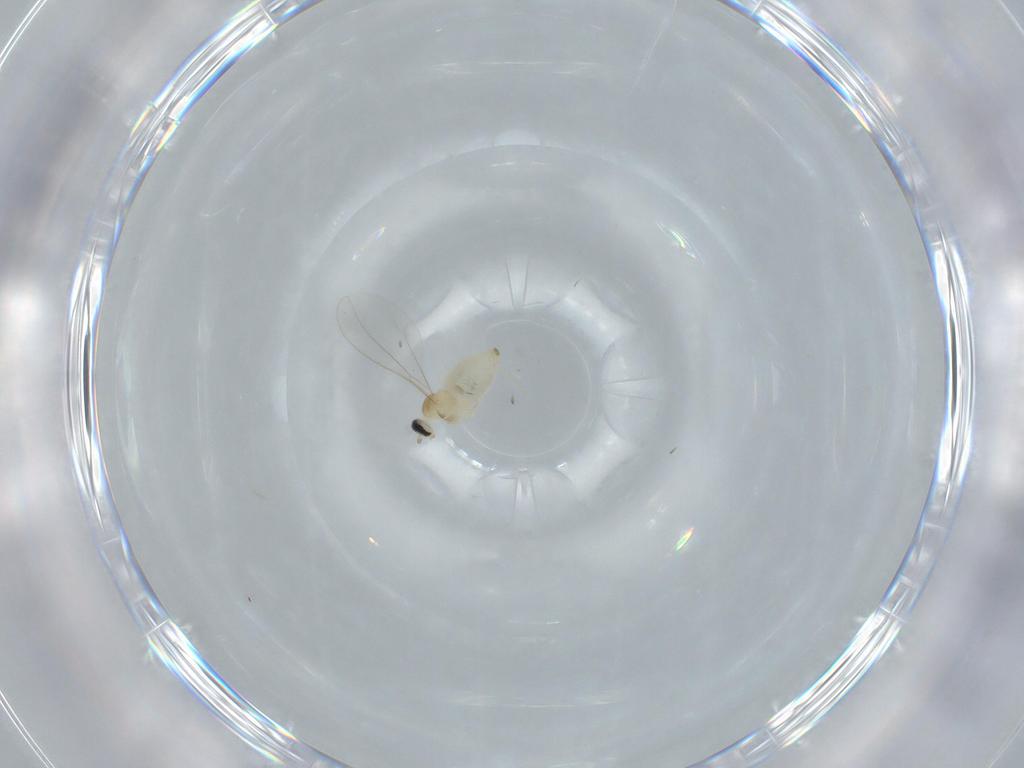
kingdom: Animalia
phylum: Arthropoda
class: Insecta
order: Diptera
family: Cecidomyiidae
